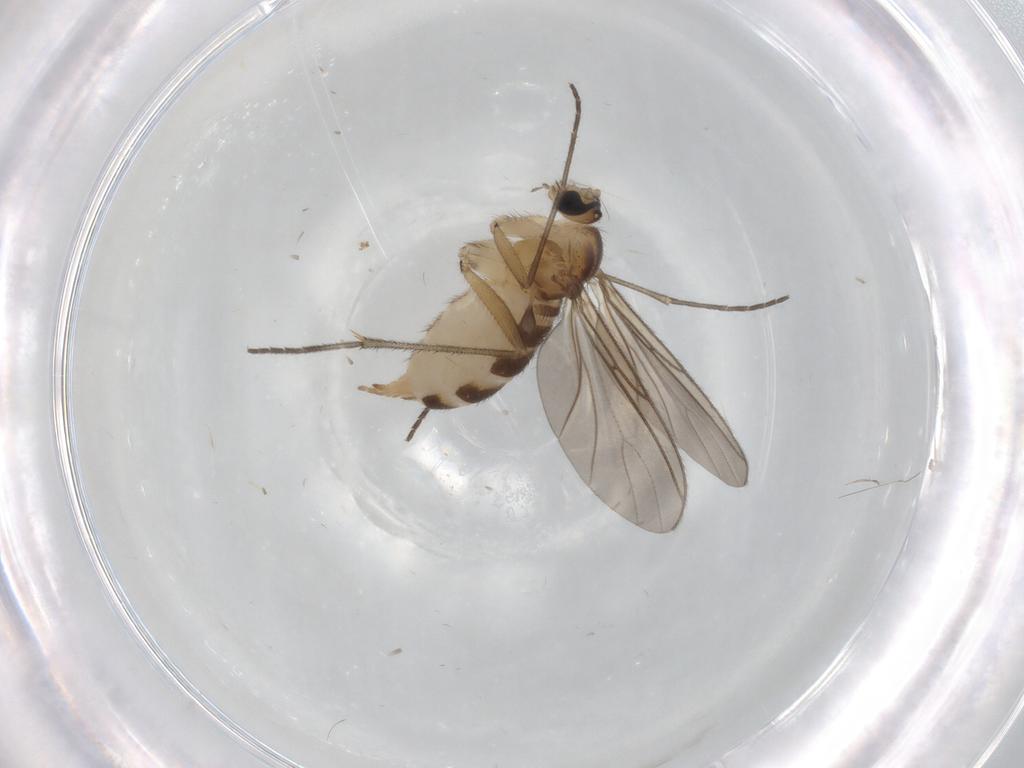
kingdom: Animalia
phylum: Arthropoda
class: Insecta
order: Diptera
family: Sciaridae
